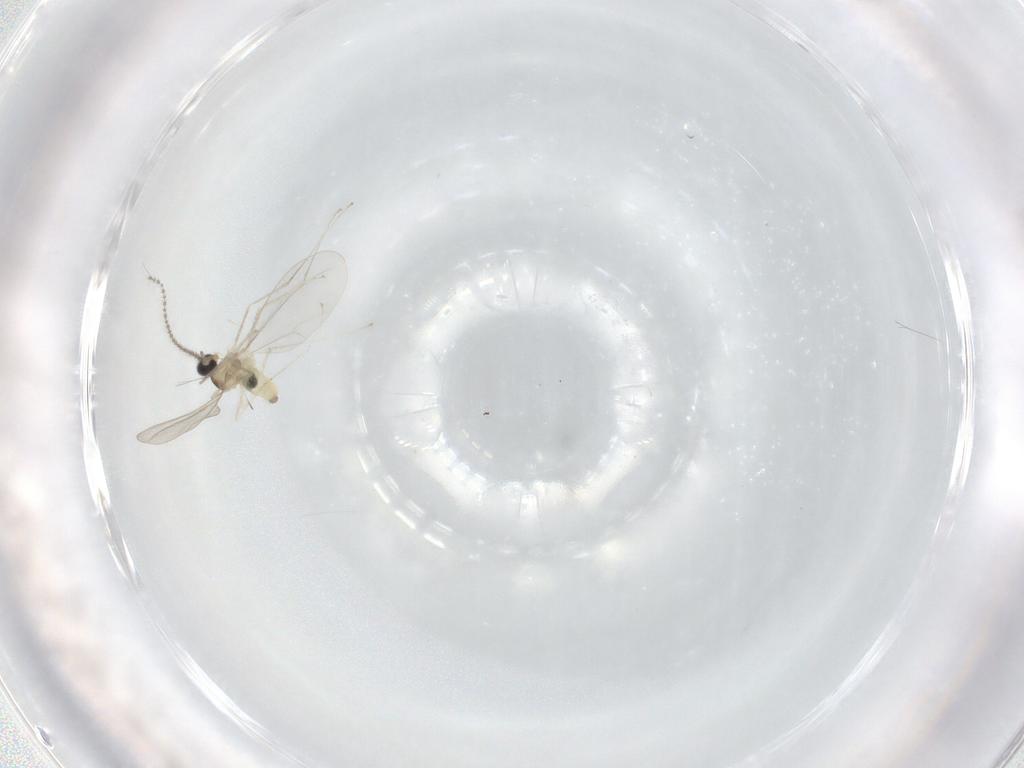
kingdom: Animalia
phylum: Arthropoda
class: Insecta
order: Diptera
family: Cecidomyiidae
